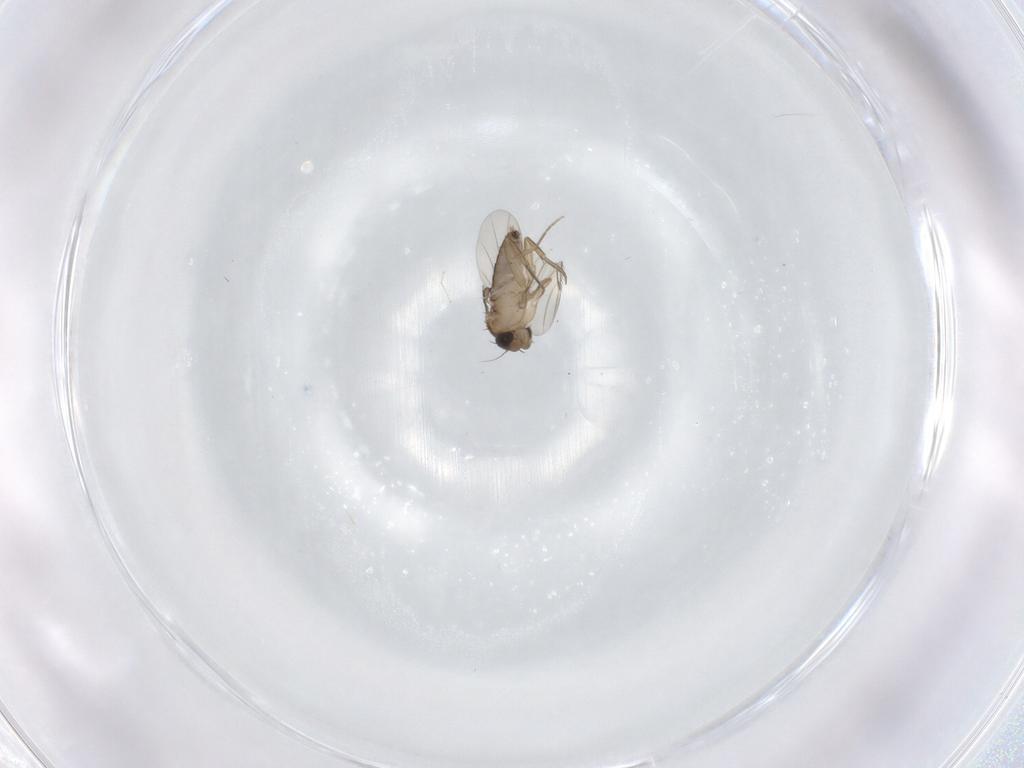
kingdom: Animalia
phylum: Arthropoda
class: Insecta
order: Diptera
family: Phoridae
